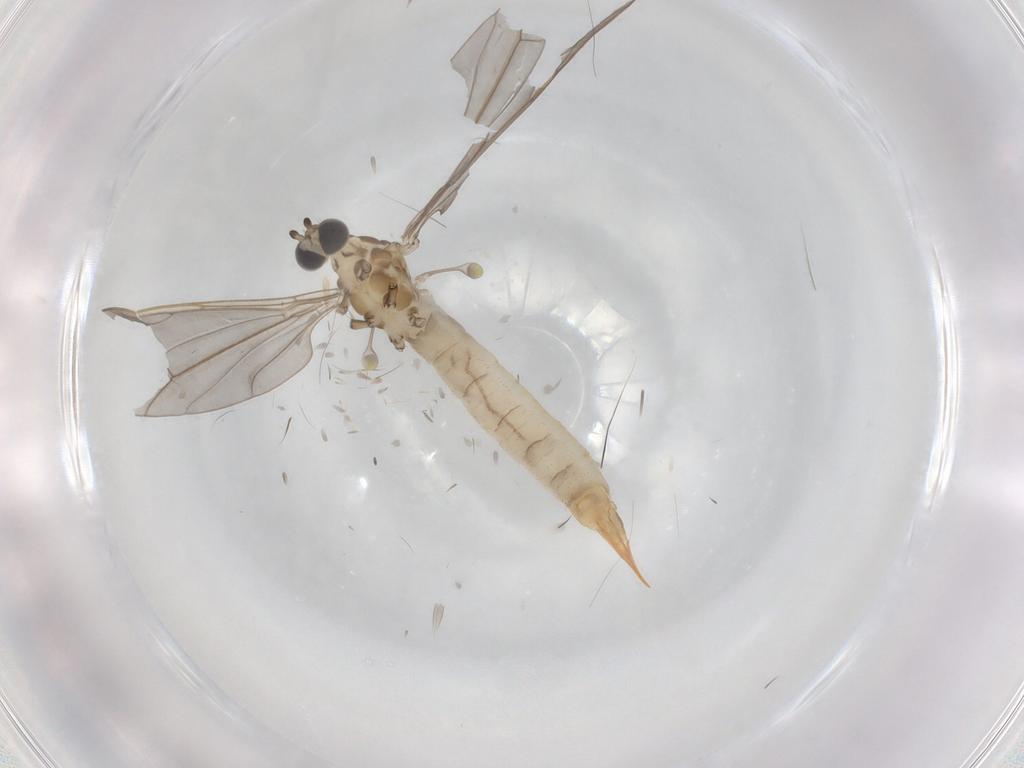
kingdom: Animalia
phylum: Arthropoda
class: Insecta
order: Diptera
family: Limoniidae
